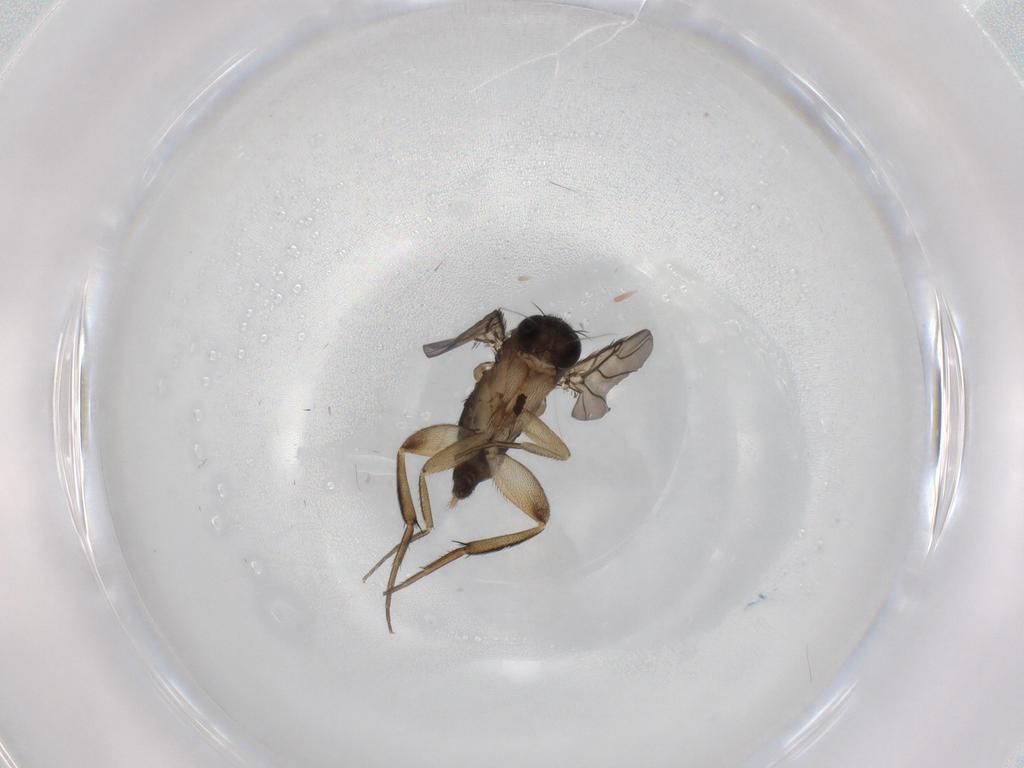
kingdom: Animalia
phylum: Arthropoda
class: Insecta
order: Diptera
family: Phoridae
